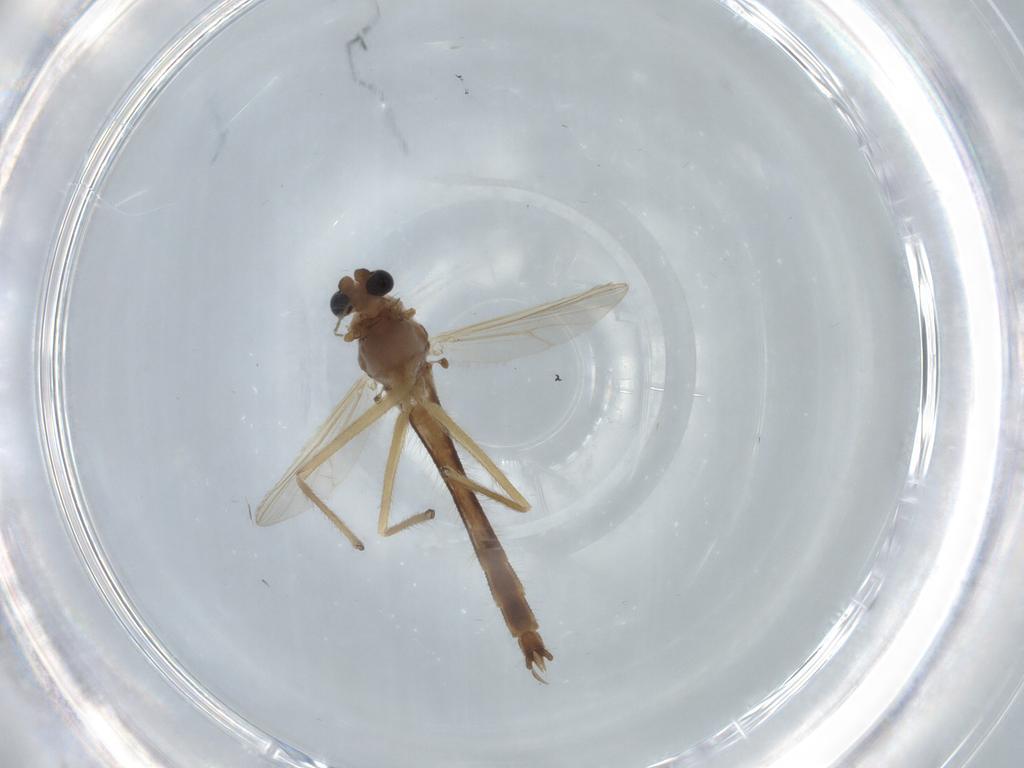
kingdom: Animalia
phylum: Arthropoda
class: Insecta
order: Diptera
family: Chironomidae
